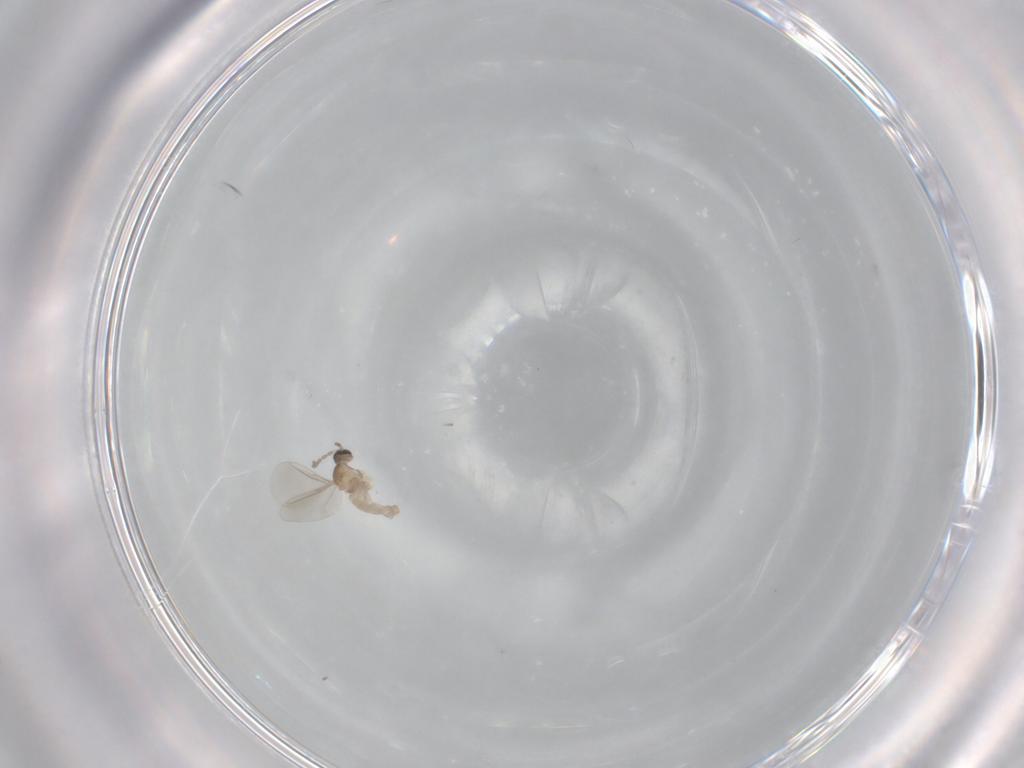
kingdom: Animalia
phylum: Arthropoda
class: Insecta
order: Diptera
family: Cecidomyiidae
